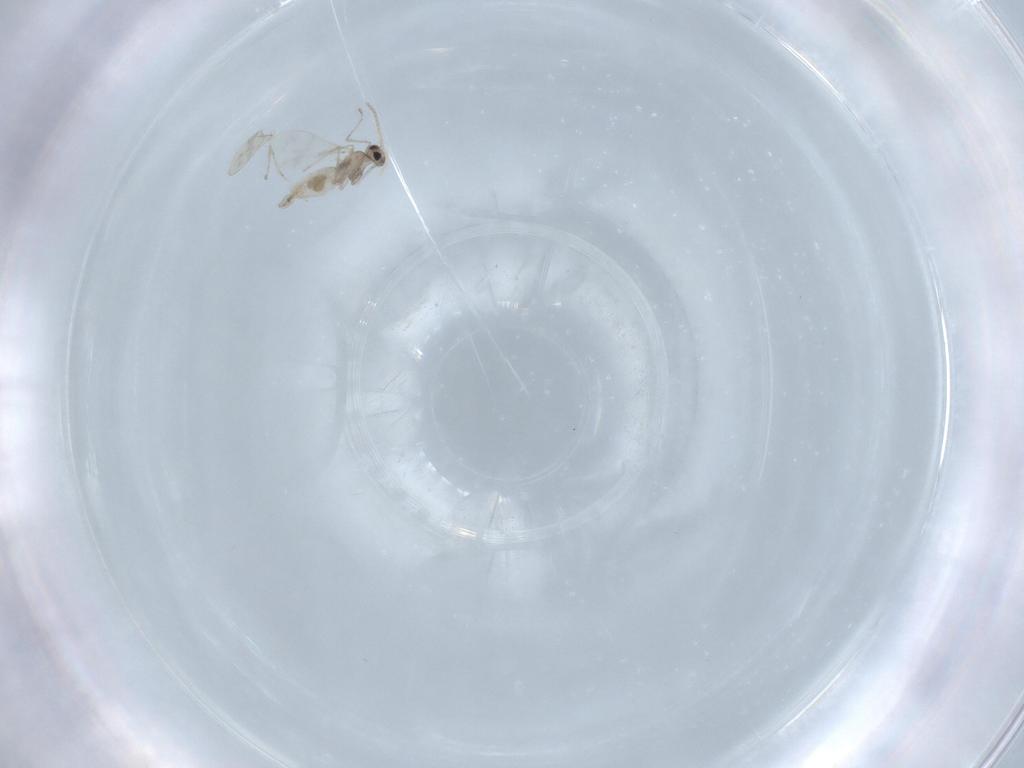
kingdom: Animalia
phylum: Arthropoda
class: Insecta
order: Diptera
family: Cecidomyiidae
